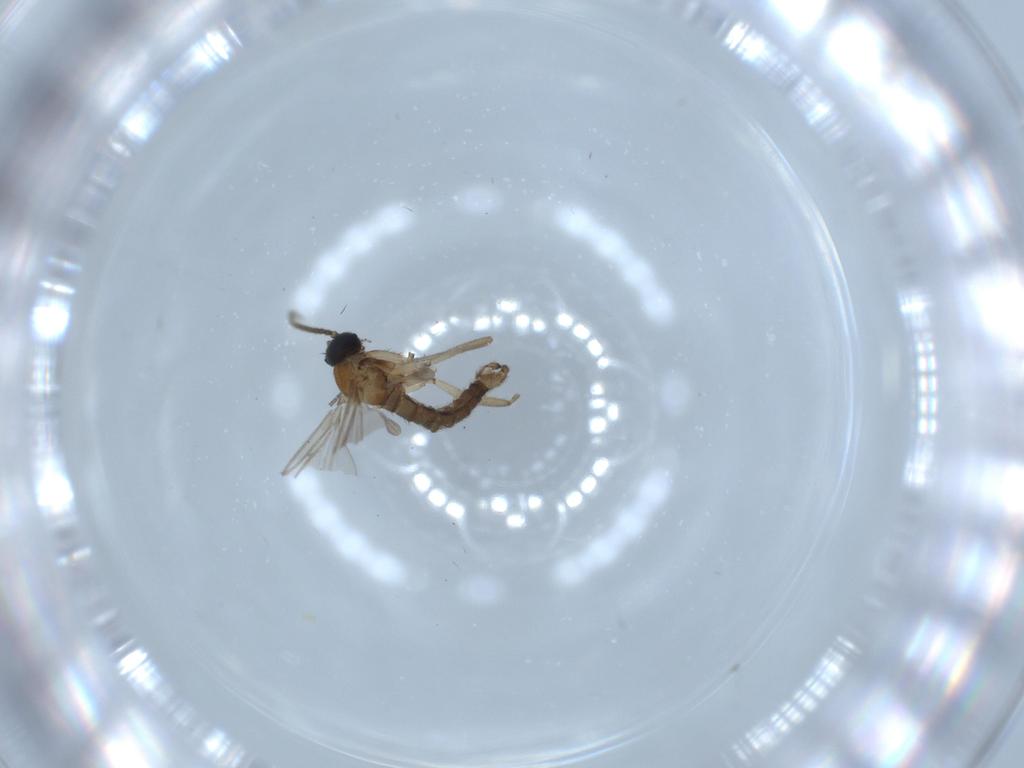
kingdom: Animalia
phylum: Arthropoda
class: Insecta
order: Diptera
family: Sciaridae
